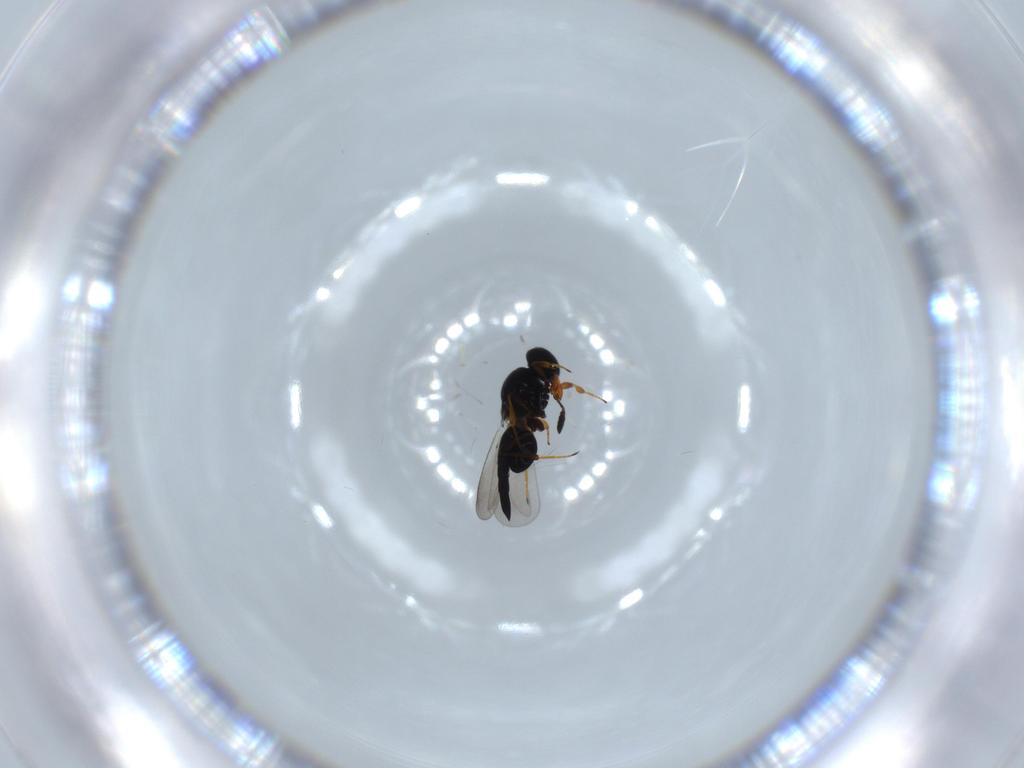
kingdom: Animalia
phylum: Arthropoda
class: Insecta
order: Hymenoptera
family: Platygastridae
